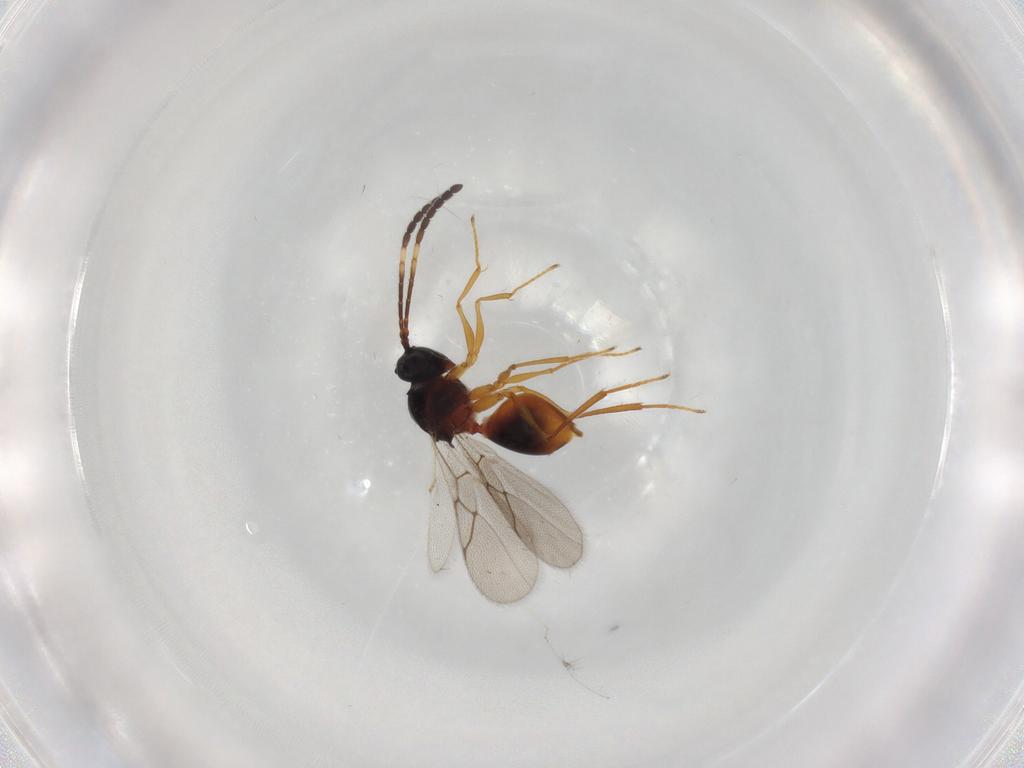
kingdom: Animalia
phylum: Arthropoda
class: Insecta
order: Hymenoptera
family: Figitidae
